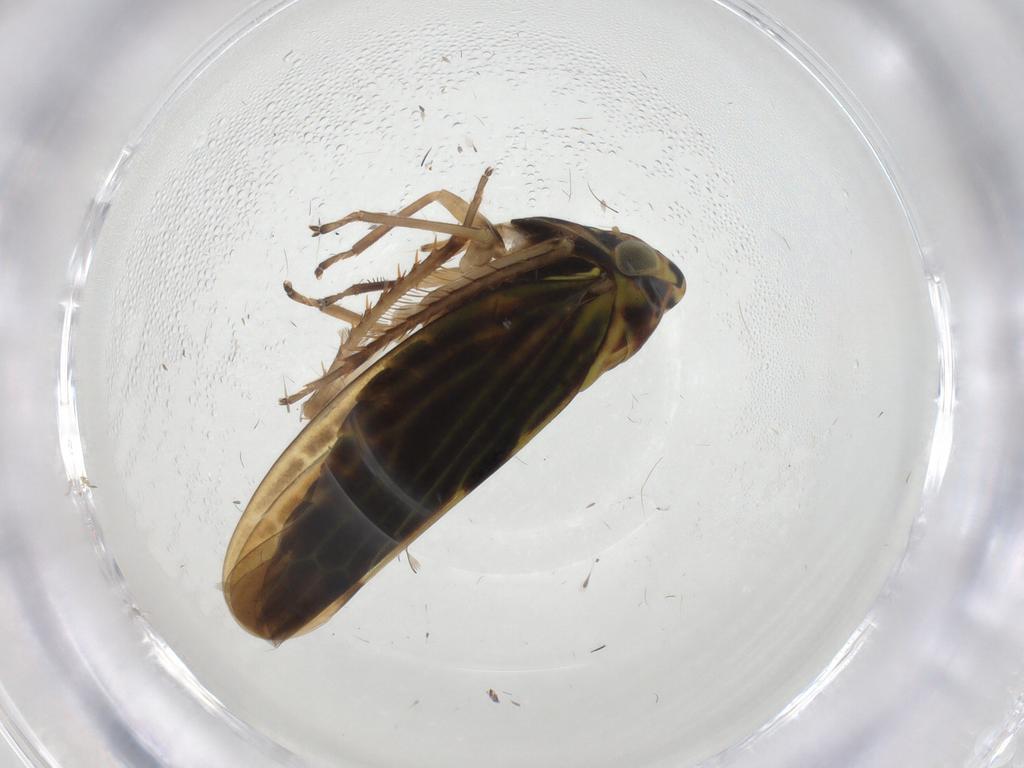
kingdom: Animalia
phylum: Arthropoda
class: Insecta
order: Hemiptera
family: Cicadellidae
